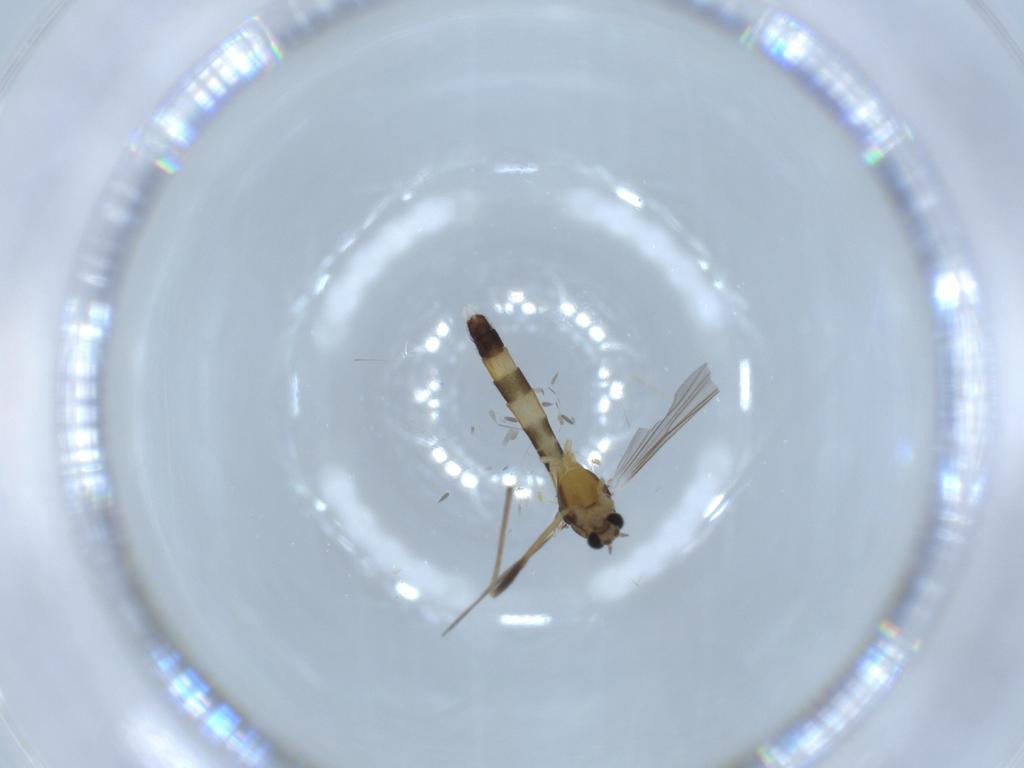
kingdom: Animalia
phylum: Arthropoda
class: Insecta
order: Diptera
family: Chironomidae
